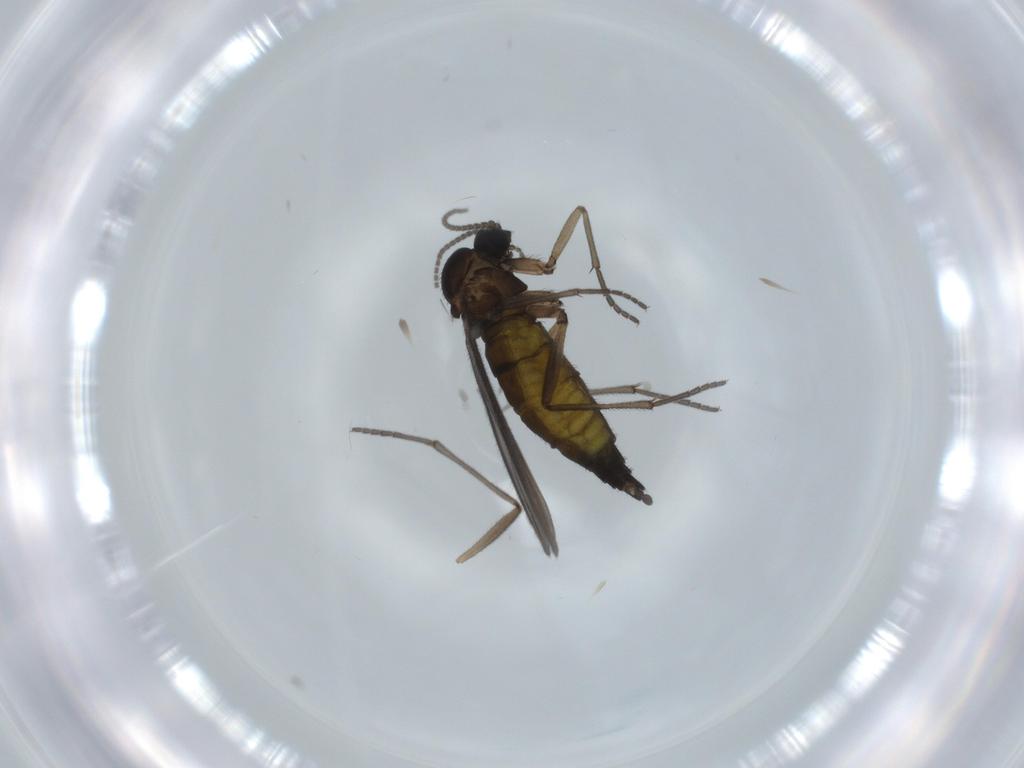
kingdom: Animalia
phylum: Arthropoda
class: Insecta
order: Diptera
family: Sciaridae
